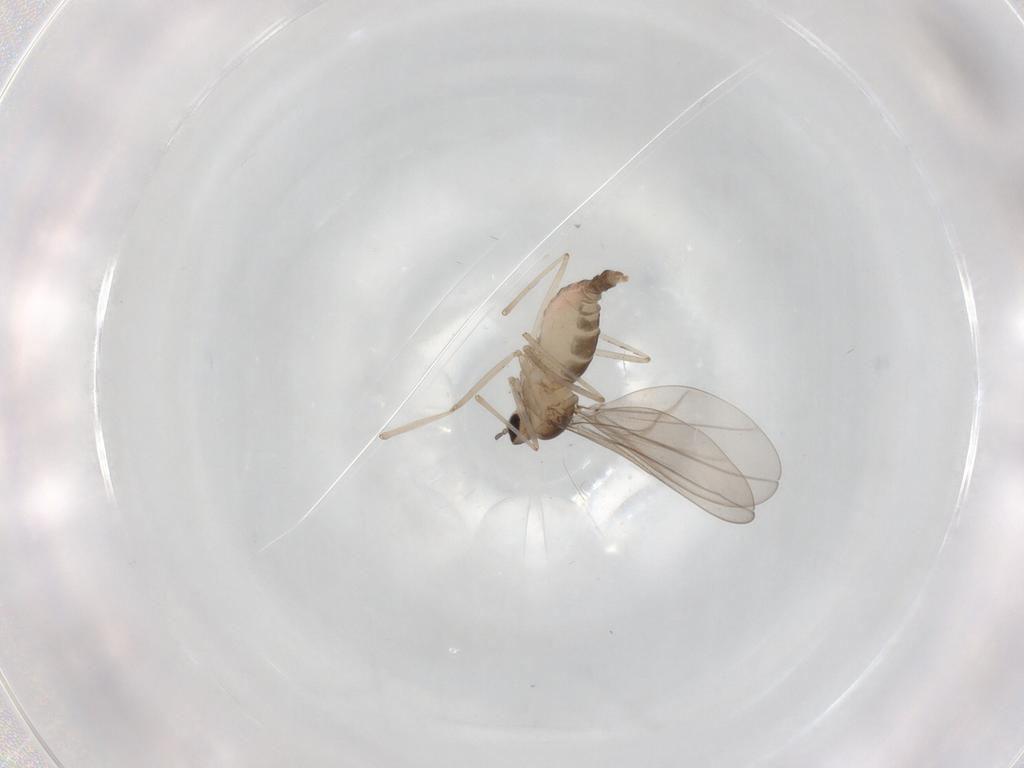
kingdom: Animalia
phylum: Arthropoda
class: Insecta
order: Diptera
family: Cecidomyiidae
